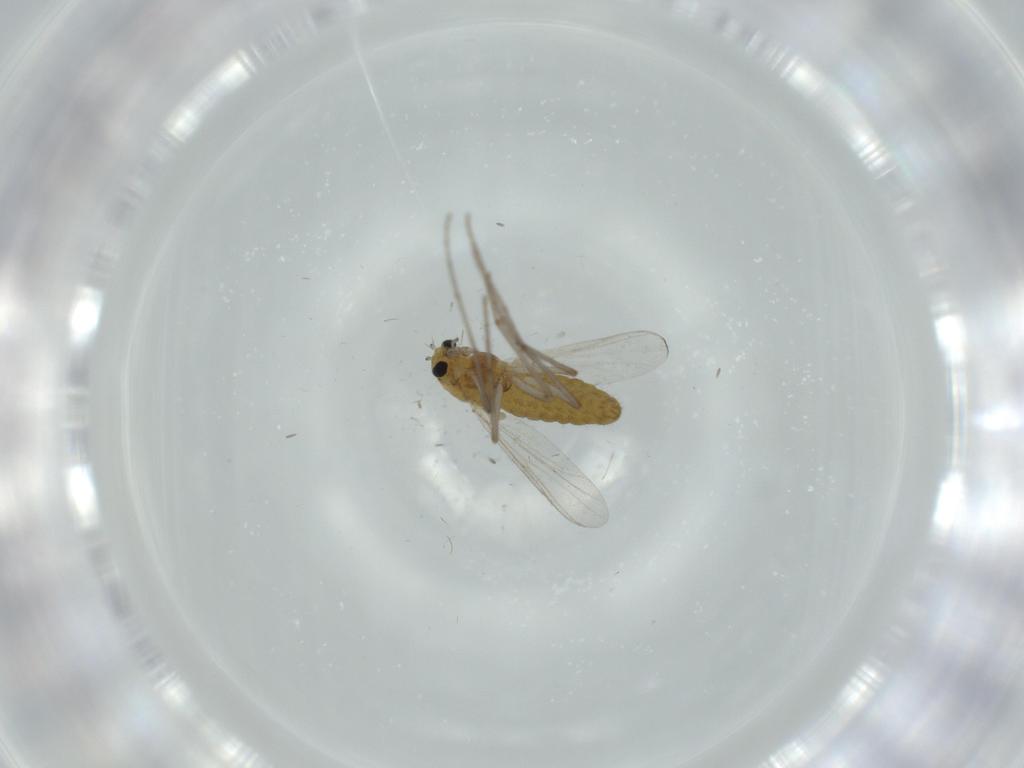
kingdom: Animalia
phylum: Arthropoda
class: Insecta
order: Diptera
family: Chironomidae
